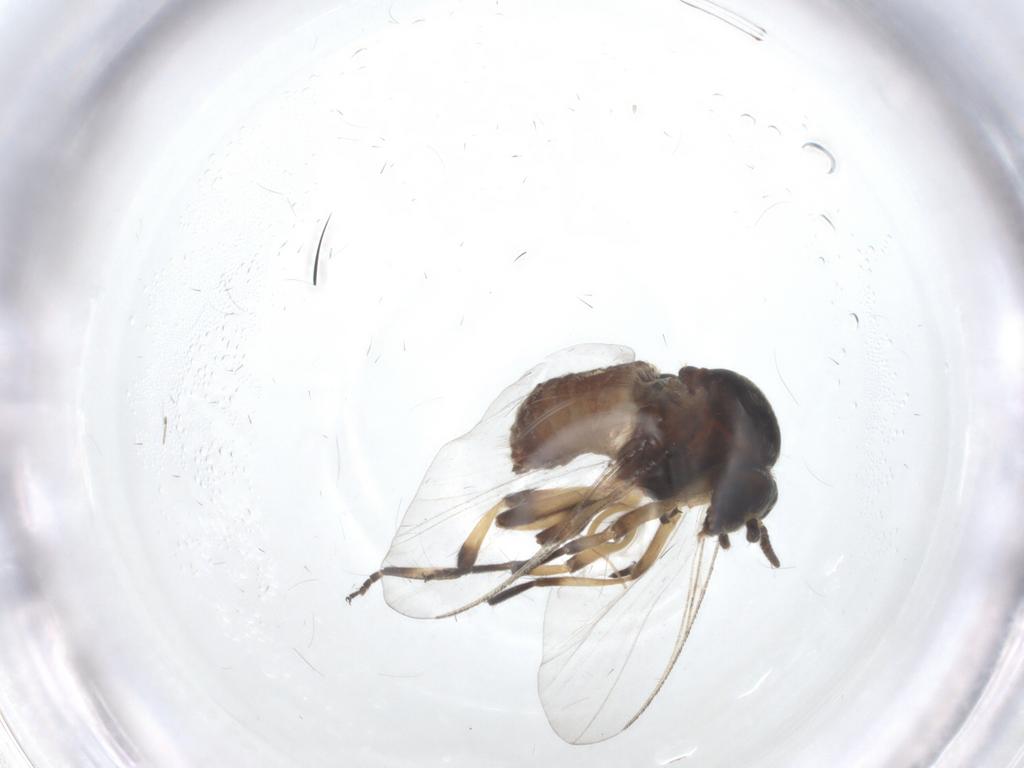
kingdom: Animalia
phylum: Arthropoda
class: Insecta
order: Diptera
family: Simuliidae
